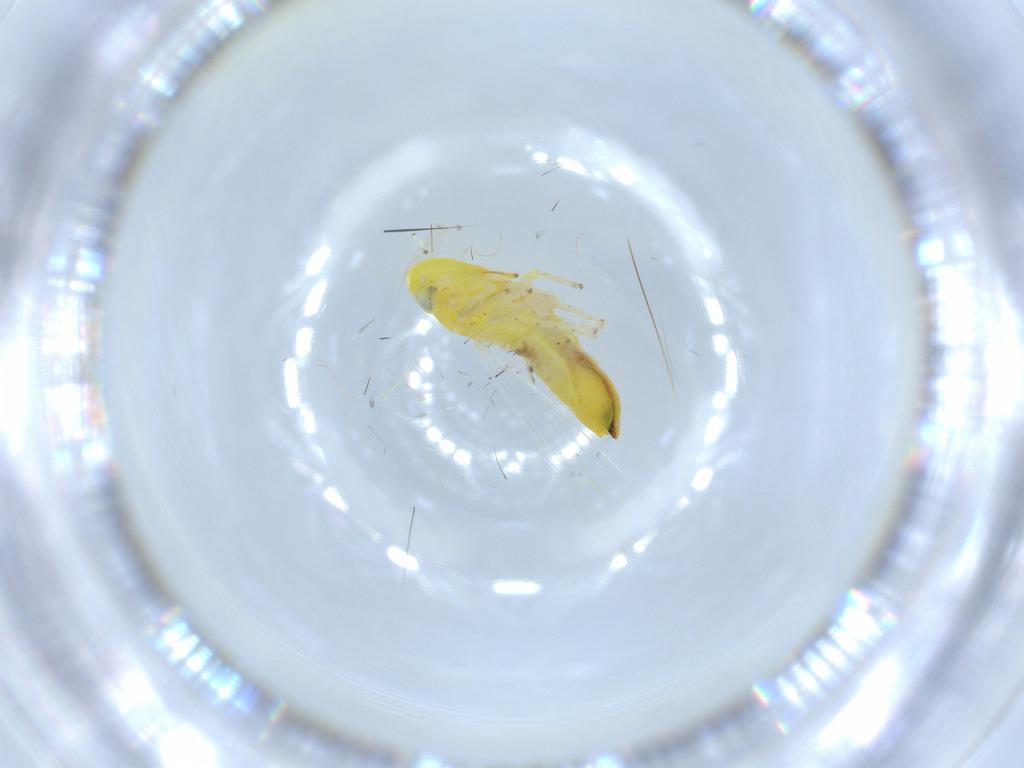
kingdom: Animalia
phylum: Arthropoda
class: Insecta
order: Hemiptera
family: Cicadellidae
